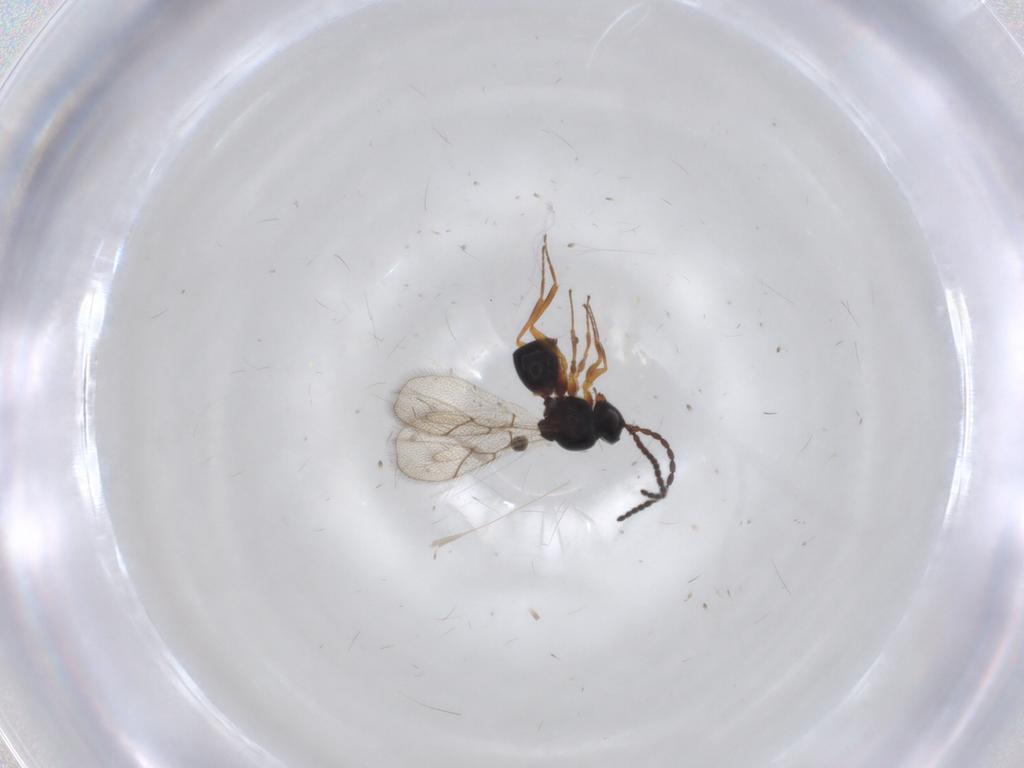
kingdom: Animalia
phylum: Arthropoda
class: Insecta
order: Hymenoptera
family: Figitidae
